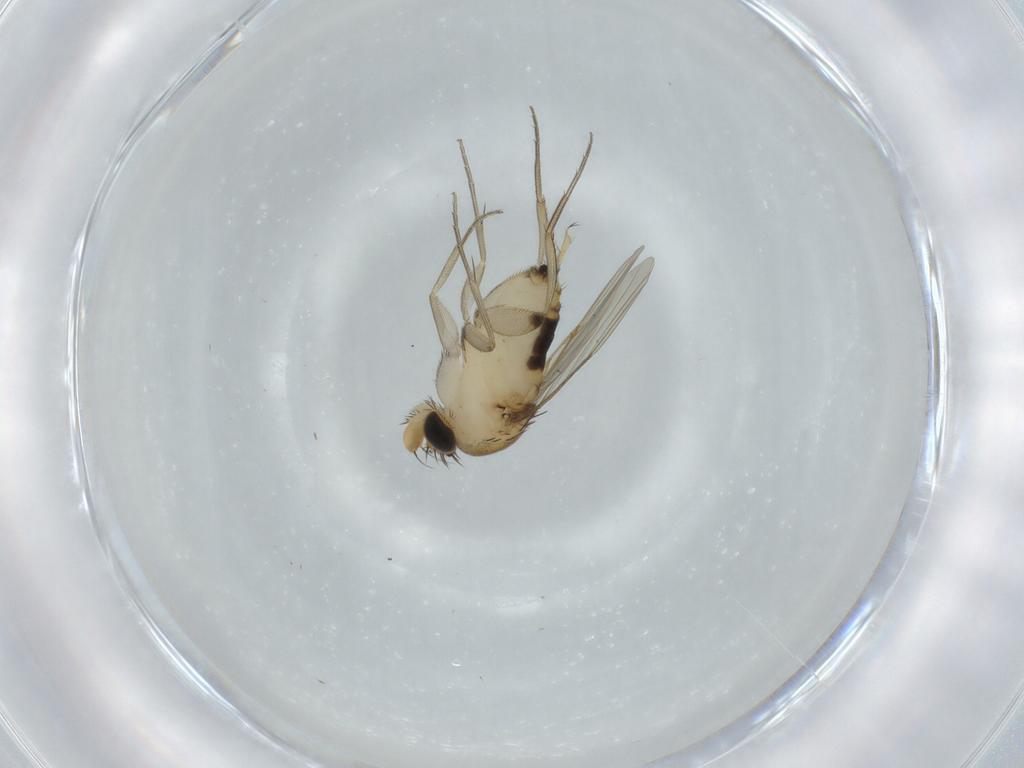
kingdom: Animalia
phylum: Arthropoda
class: Insecta
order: Diptera
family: Phoridae
